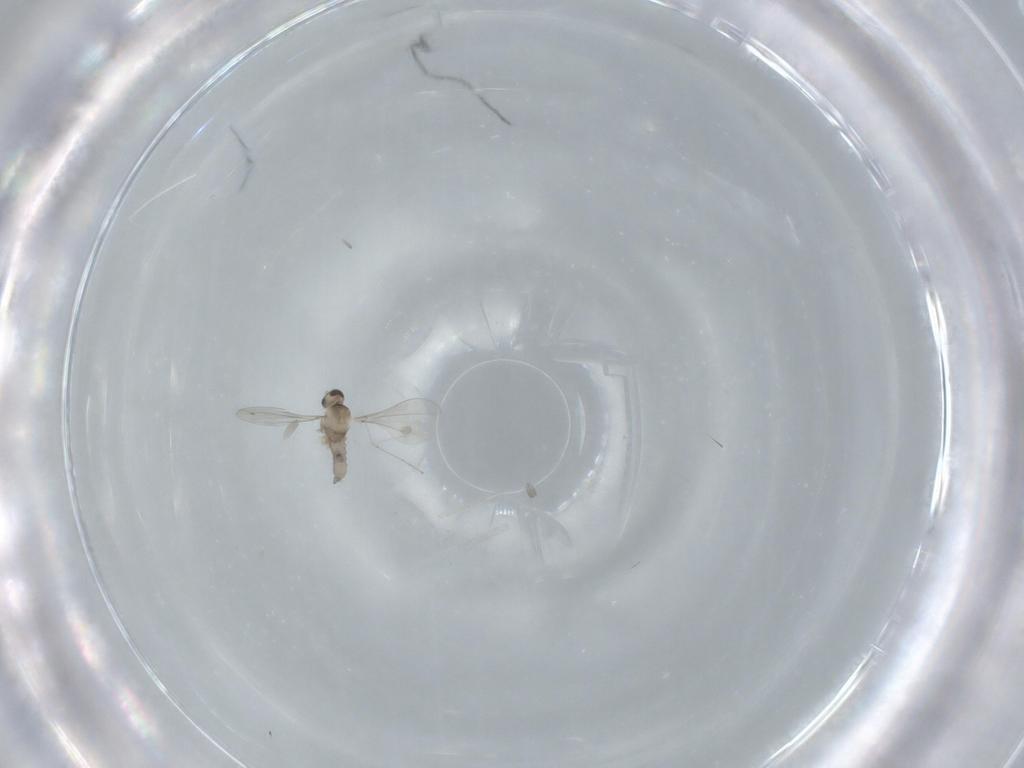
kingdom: Animalia
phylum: Arthropoda
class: Insecta
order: Diptera
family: Cecidomyiidae
